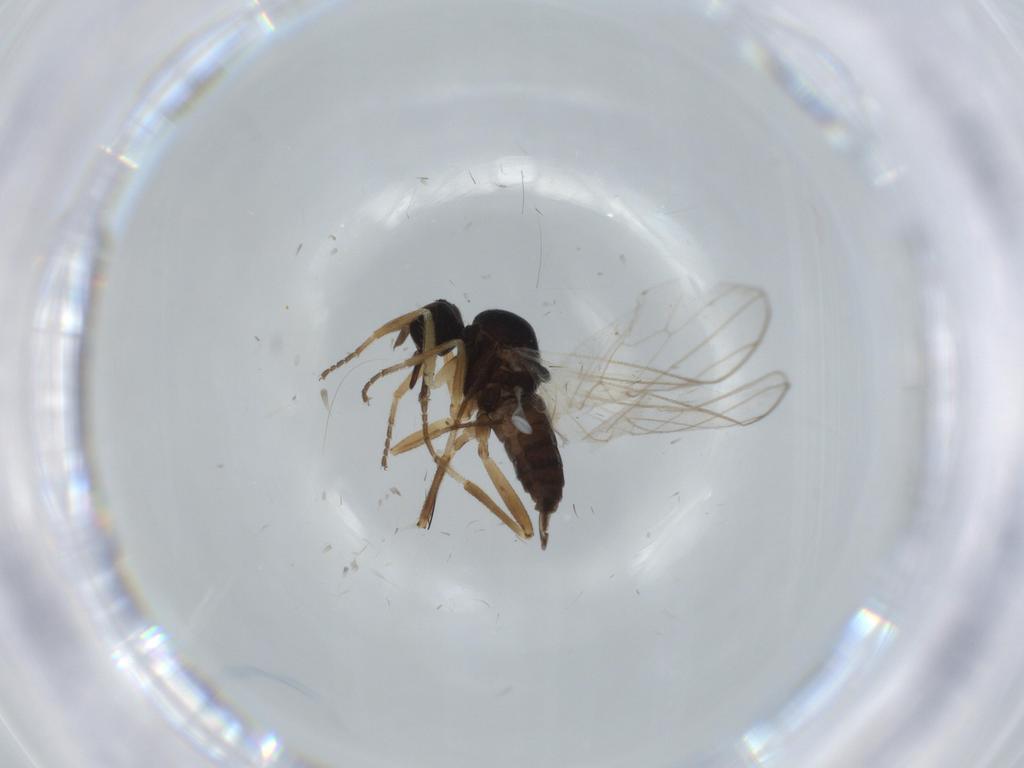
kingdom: Animalia
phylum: Arthropoda
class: Insecta
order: Diptera
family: Hybotidae
